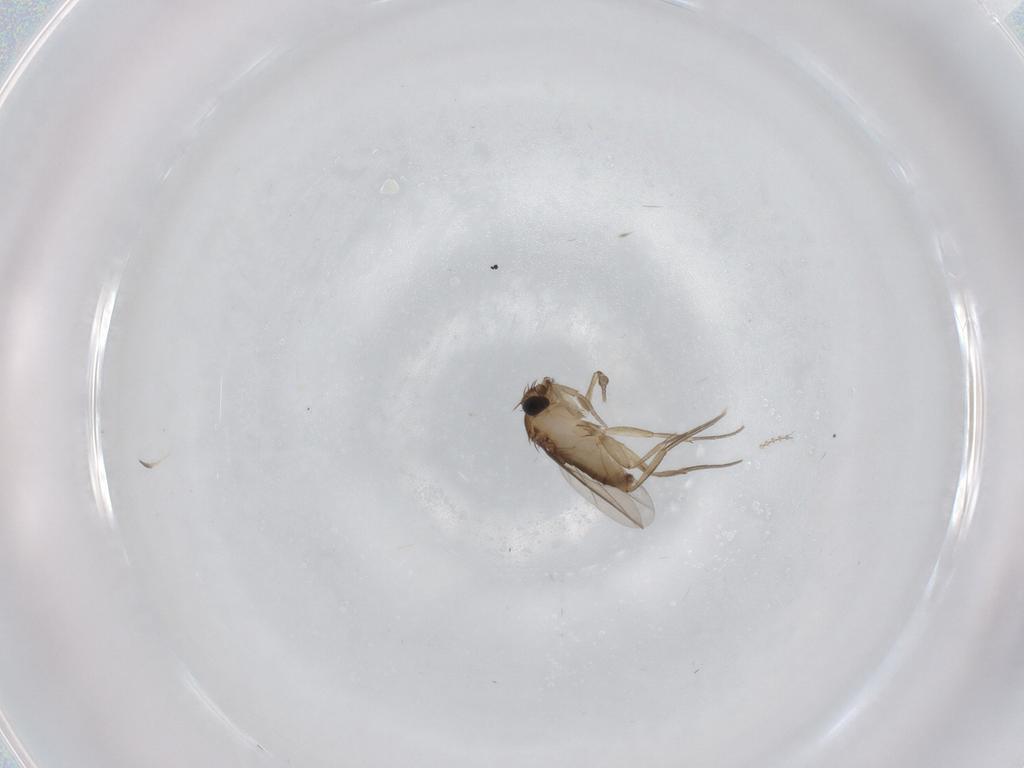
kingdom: Animalia
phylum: Arthropoda
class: Insecta
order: Diptera
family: Phoridae
